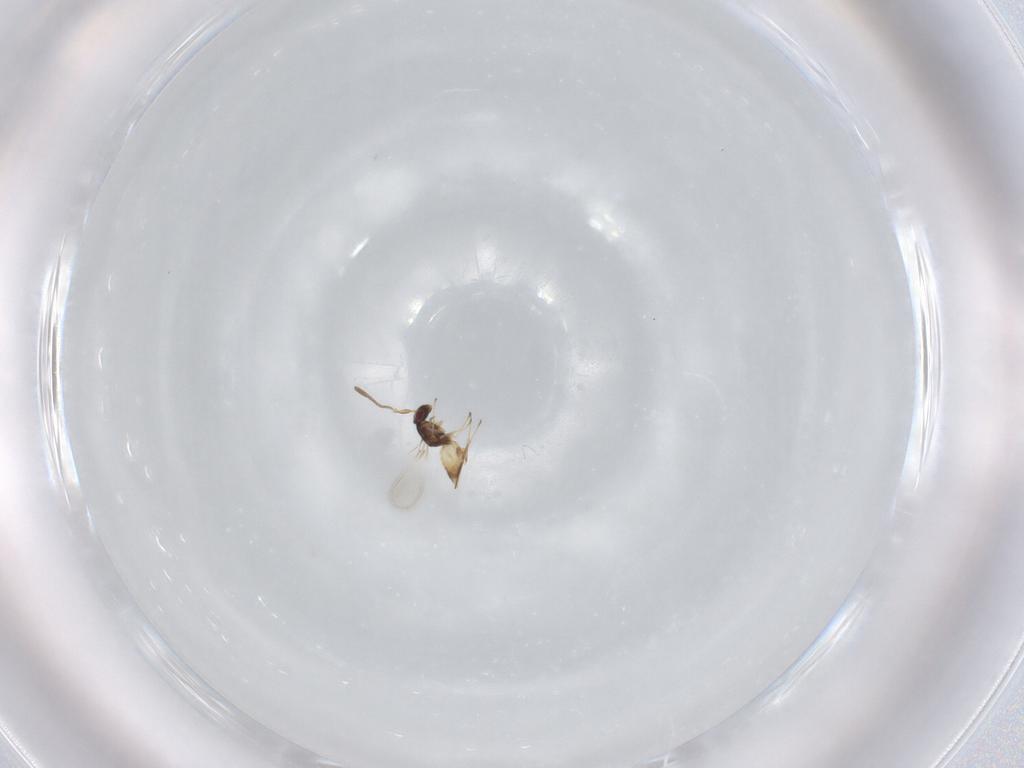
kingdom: Animalia
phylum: Arthropoda
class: Insecta
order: Hymenoptera
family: Mymaridae
